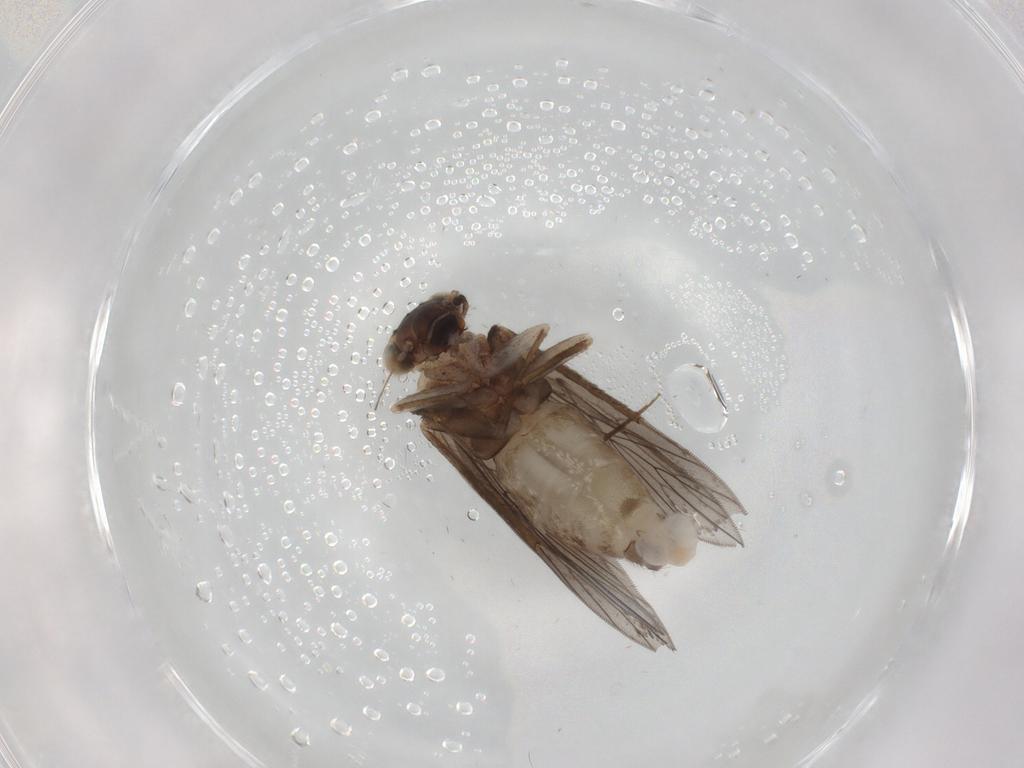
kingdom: Animalia
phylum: Arthropoda
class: Insecta
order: Psocodea
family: Lepidopsocidae
